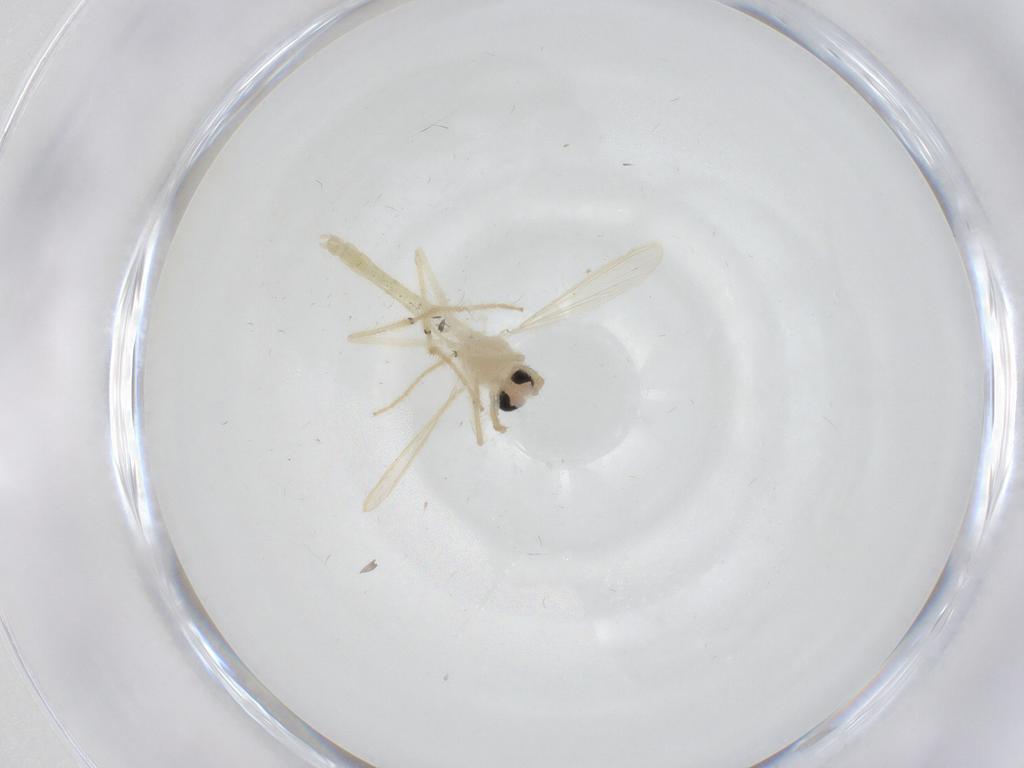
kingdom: Animalia
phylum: Arthropoda
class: Insecta
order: Diptera
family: Chironomidae
